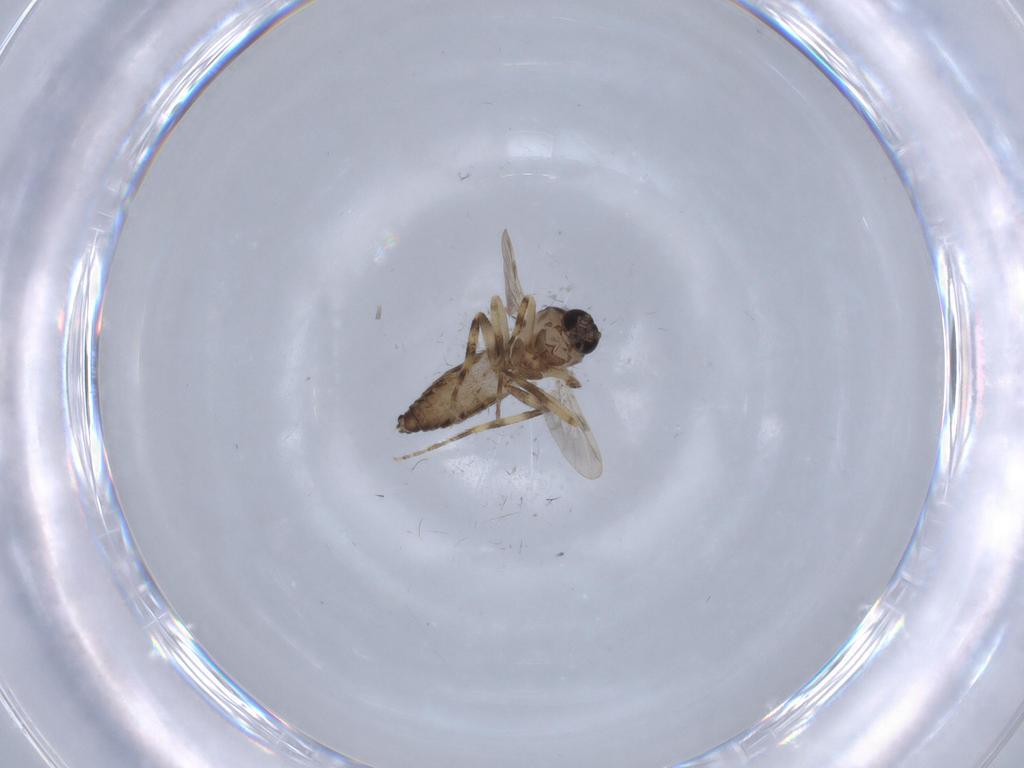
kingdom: Animalia
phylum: Arthropoda
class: Insecta
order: Diptera
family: Ceratopogonidae
